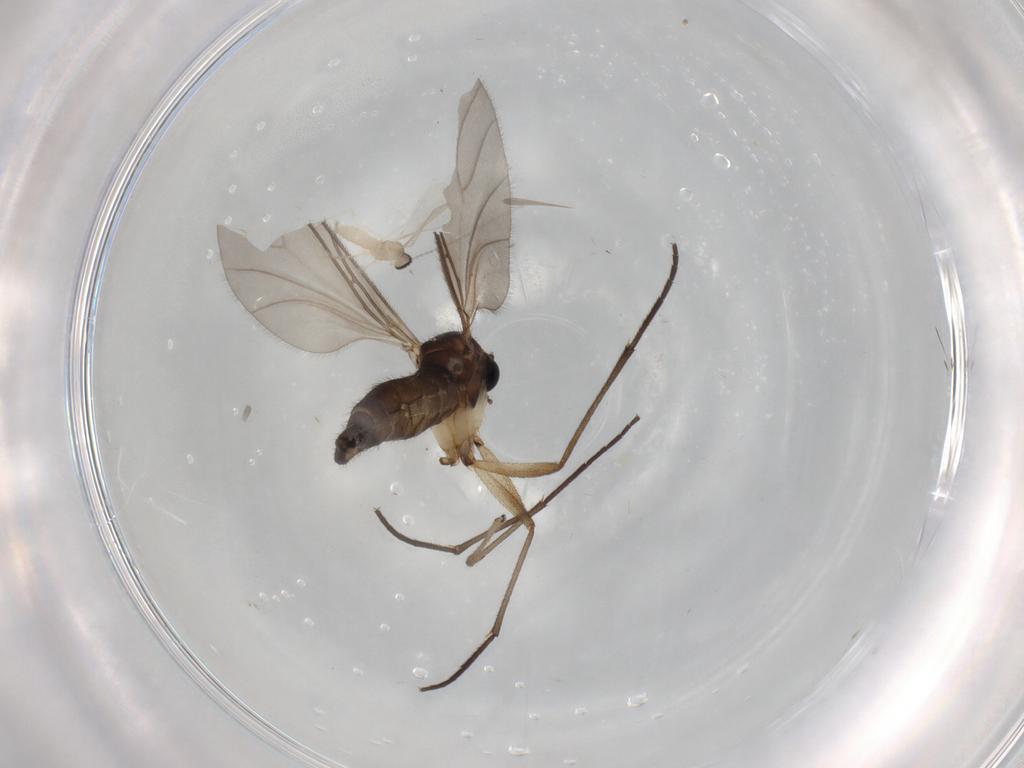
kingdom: Animalia
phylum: Arthropoda
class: Insecta
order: Diptera
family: Sciaridae
